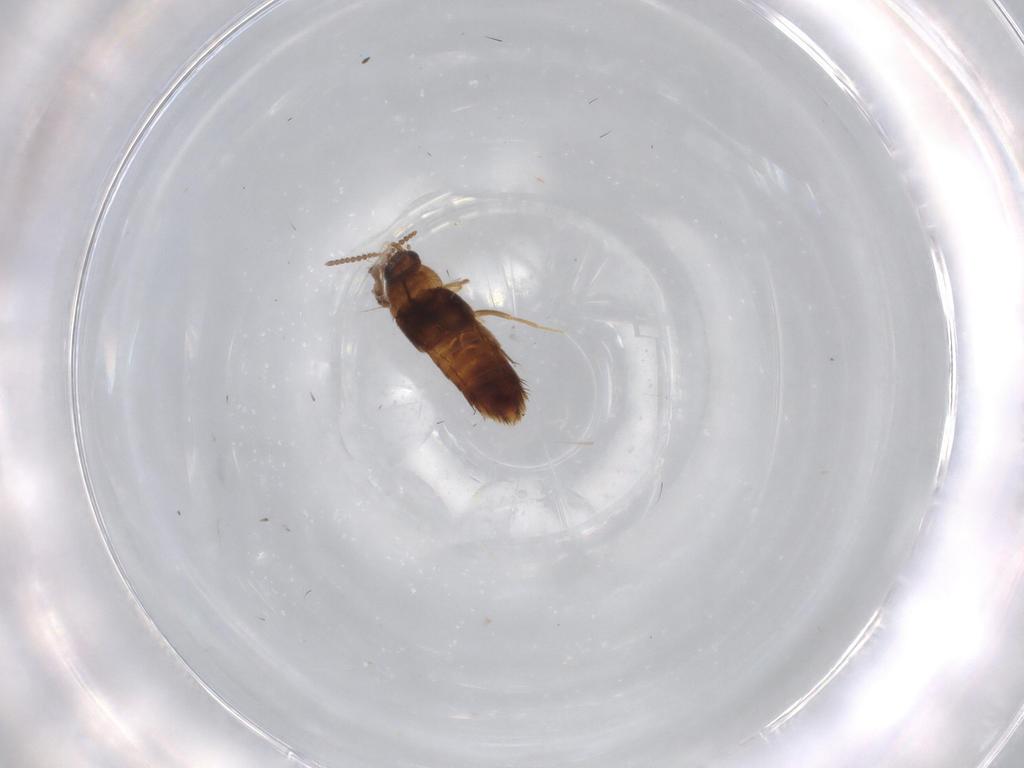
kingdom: Animalia
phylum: Arthropoda
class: Insecta
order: Coleoptera
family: Staphylinidae
